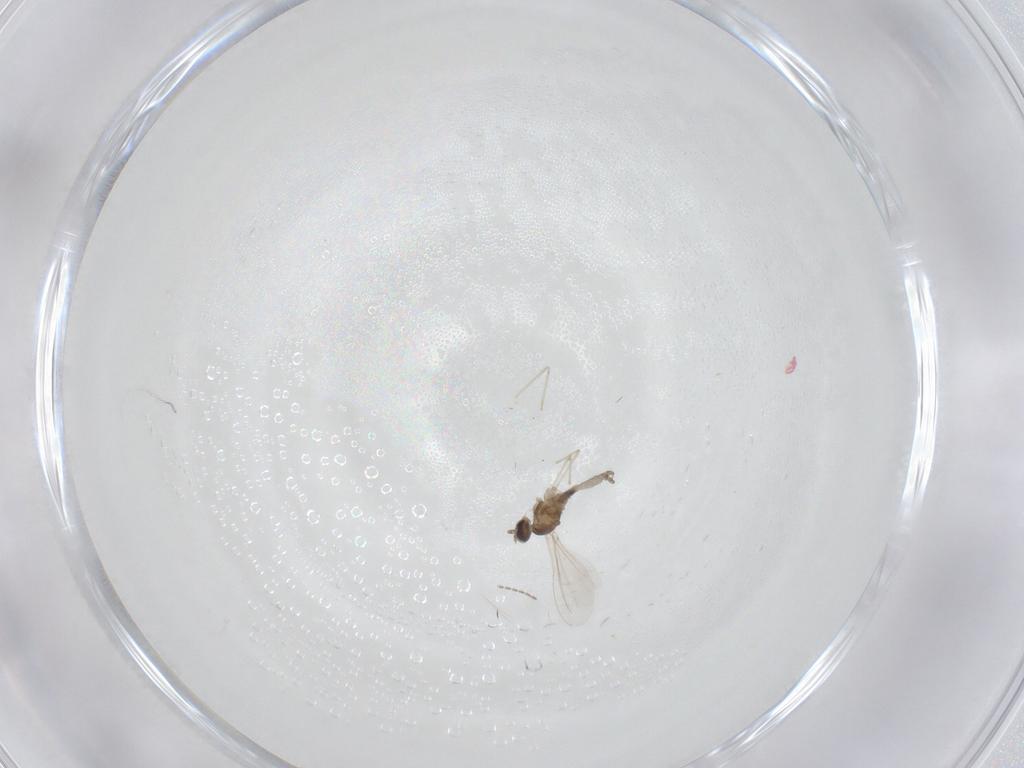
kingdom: Animalia
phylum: Arthropoda
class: Insecta
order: Diptera
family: Cecidomyiidae
